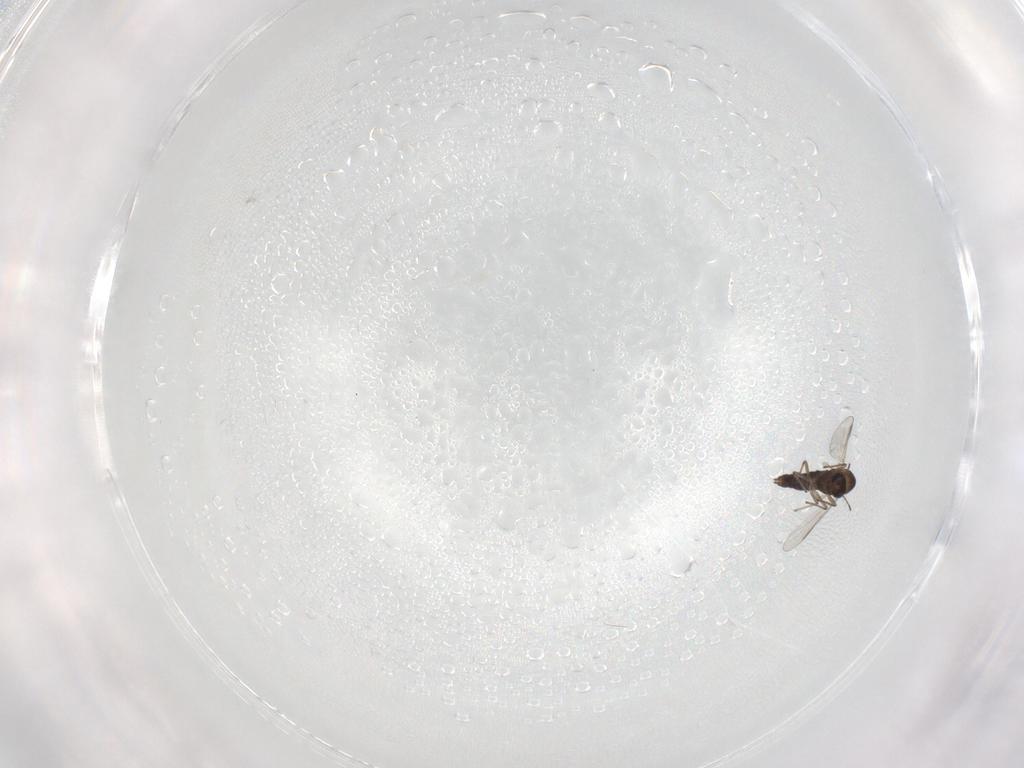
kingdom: Animalia
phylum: Arthropoda
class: Insecta
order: Diptera
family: Chironomidae
